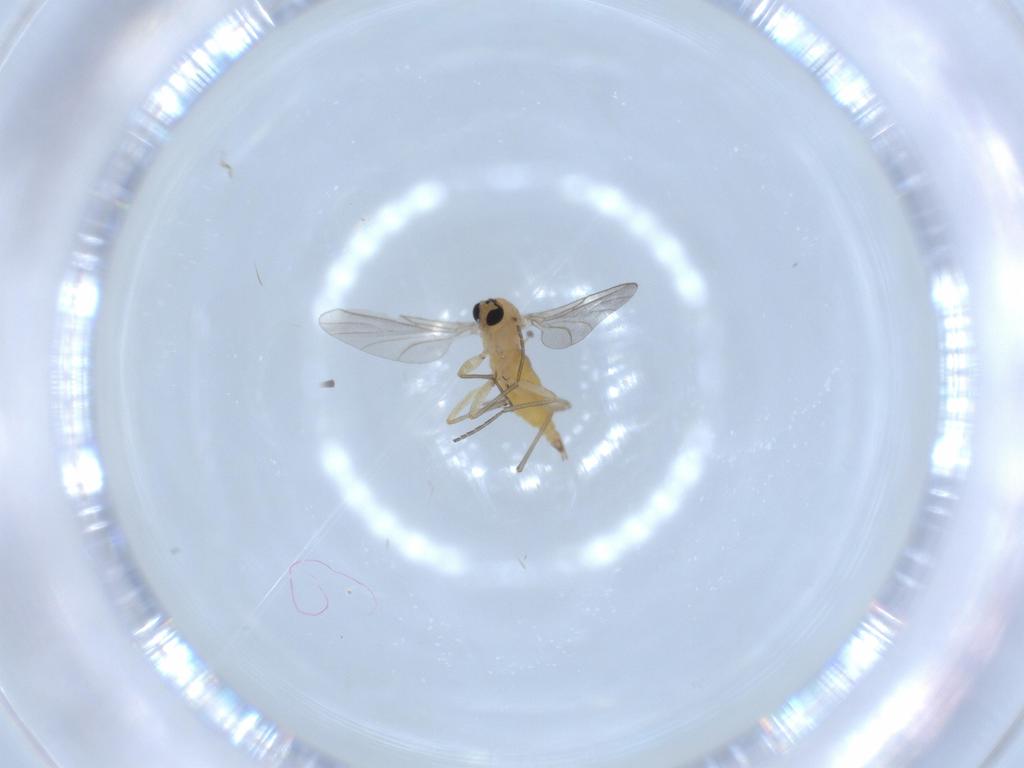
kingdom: Animalia
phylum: Arthropoda
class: Insecta
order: Diptera
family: Sciaridae
